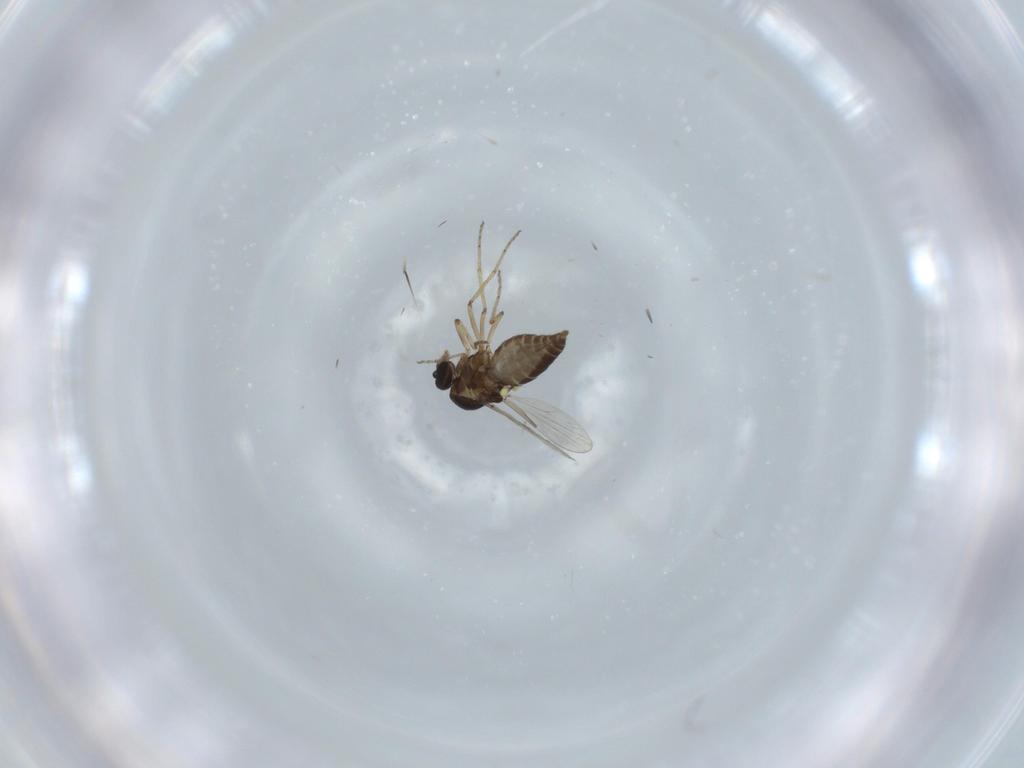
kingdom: Animalia
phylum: Arthropoda
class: Insecta
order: Diptera
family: Ceratopogonidae
